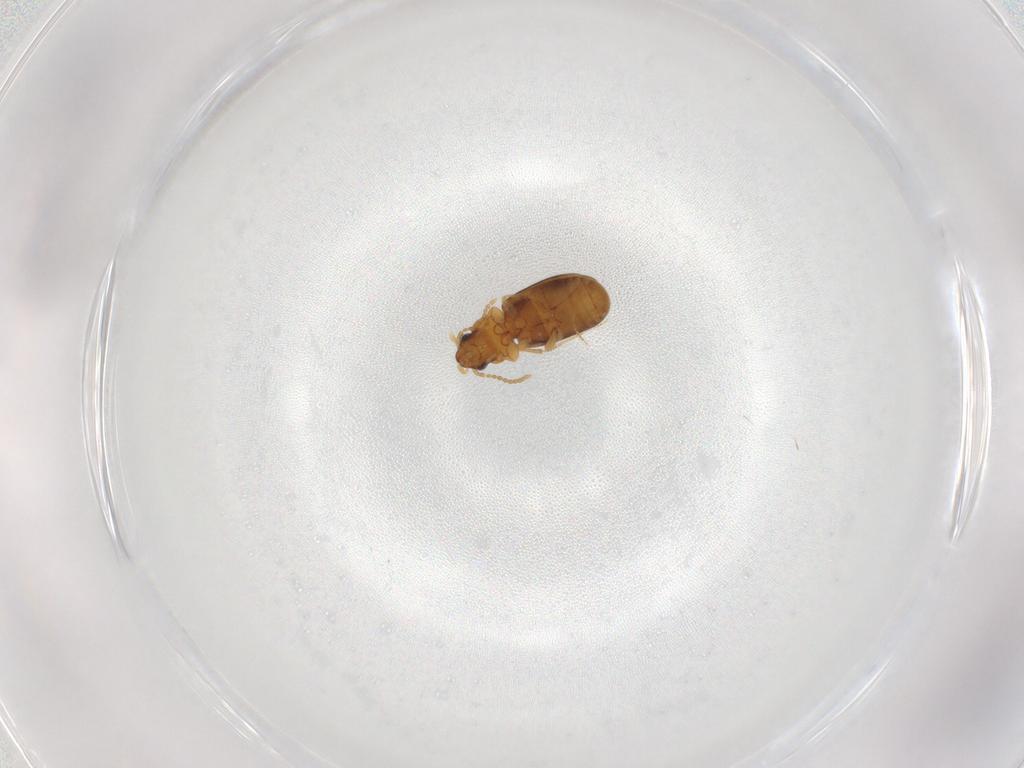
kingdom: Animalia
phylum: Arthropoda
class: Insecta
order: Coleoptera
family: Carabidae
